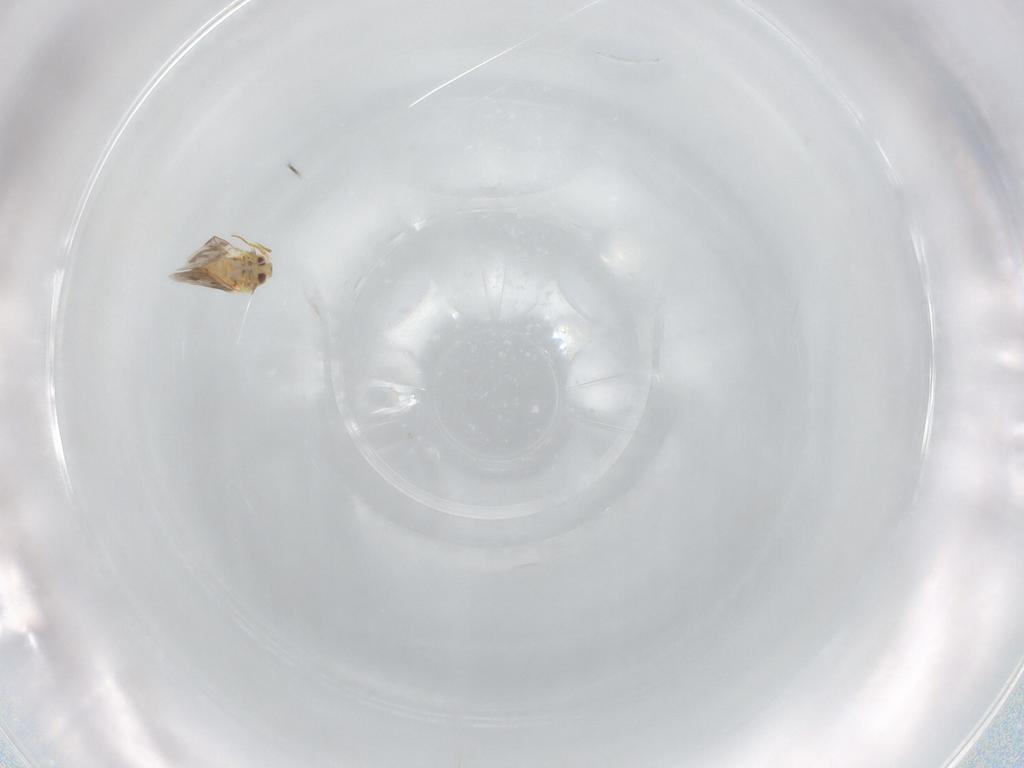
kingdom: Animalia
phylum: Arthropoda
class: Insecta
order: Hemiptera
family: Aleyrodidae
